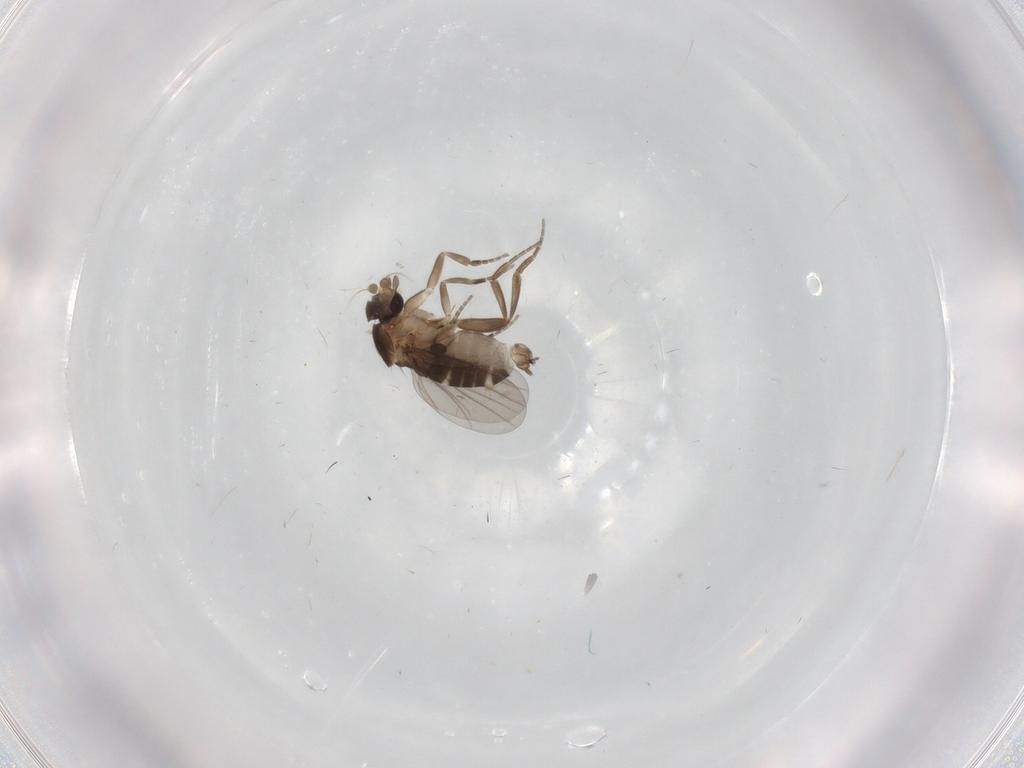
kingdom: Animalia
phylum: Arthropoda
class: Insecta
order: Diptera
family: Phoridae
